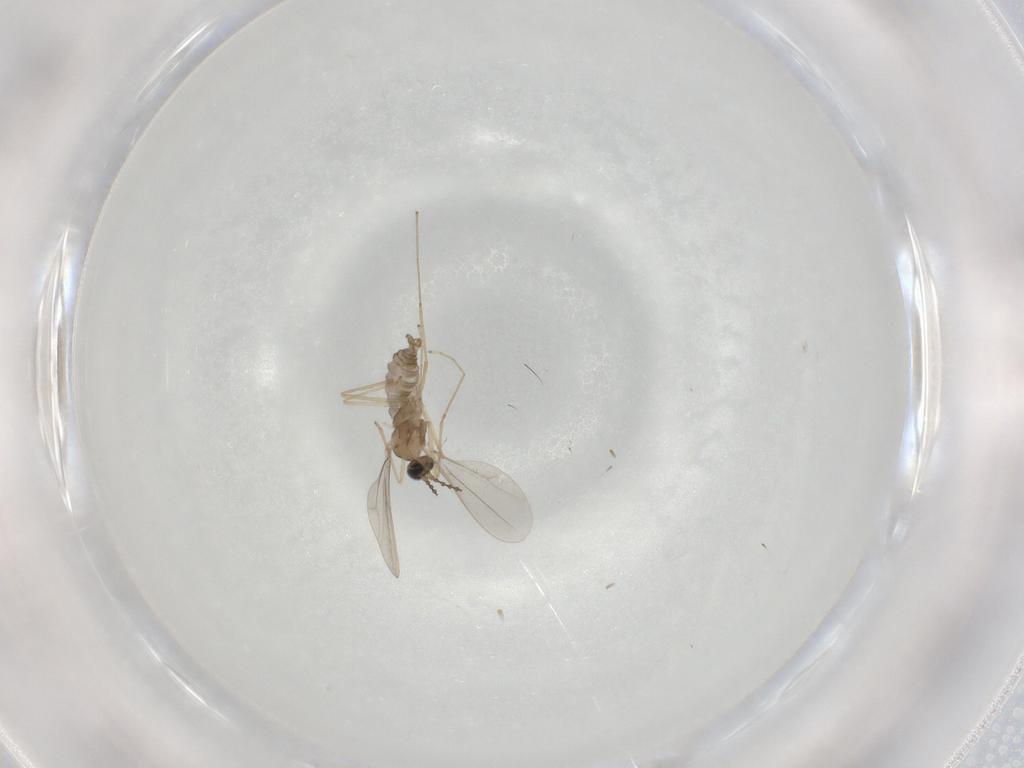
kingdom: Animalia
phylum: Arthropoda
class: Insecta
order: Diptera
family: Cecidomyiidae
